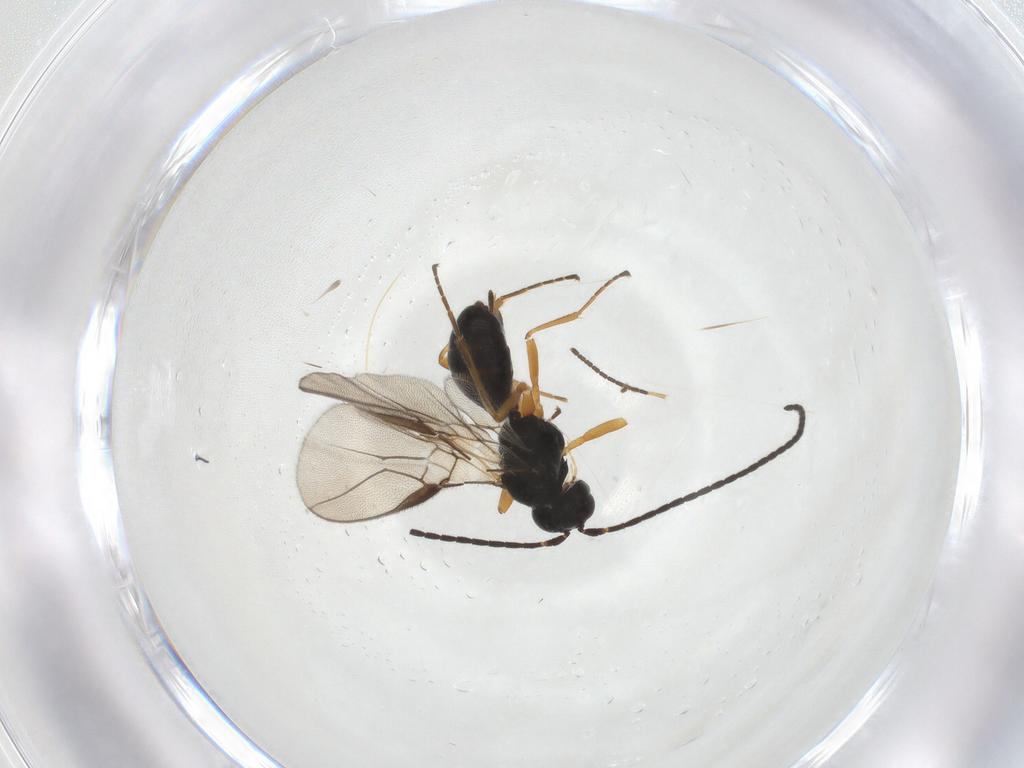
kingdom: Animalia
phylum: Arthropoda
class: Insecta
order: Hymenoptera
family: Braconidae
